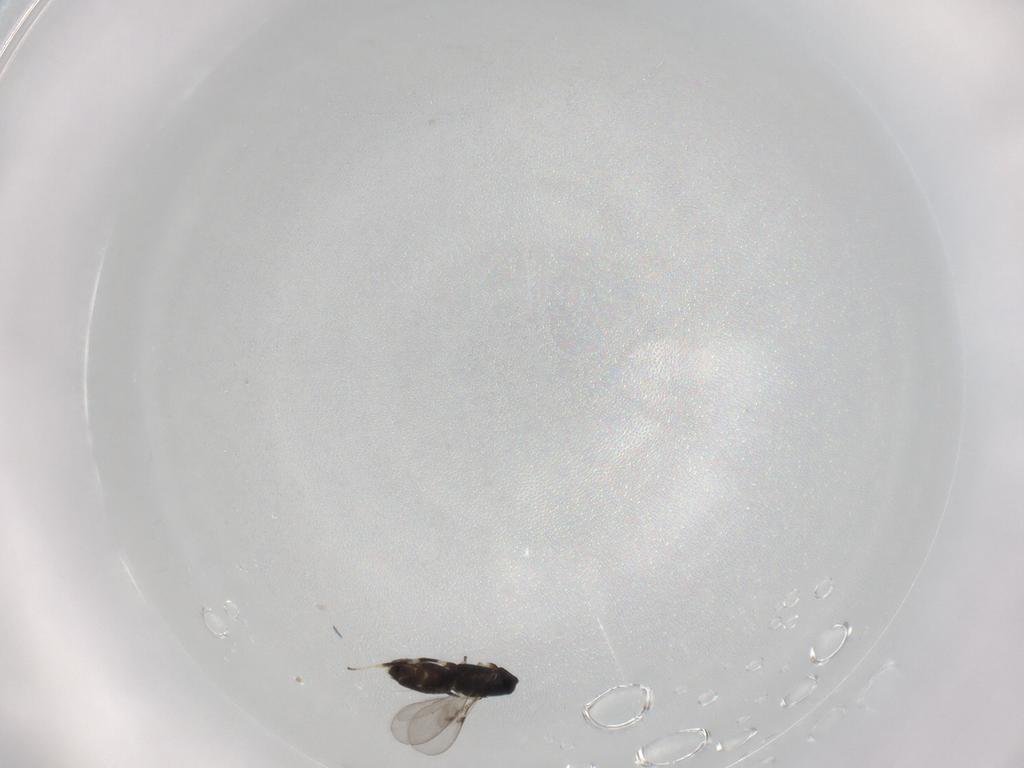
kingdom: Animalia
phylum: Arthropoda
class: Insecta
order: Hymenoptera
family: Encyrtidae
